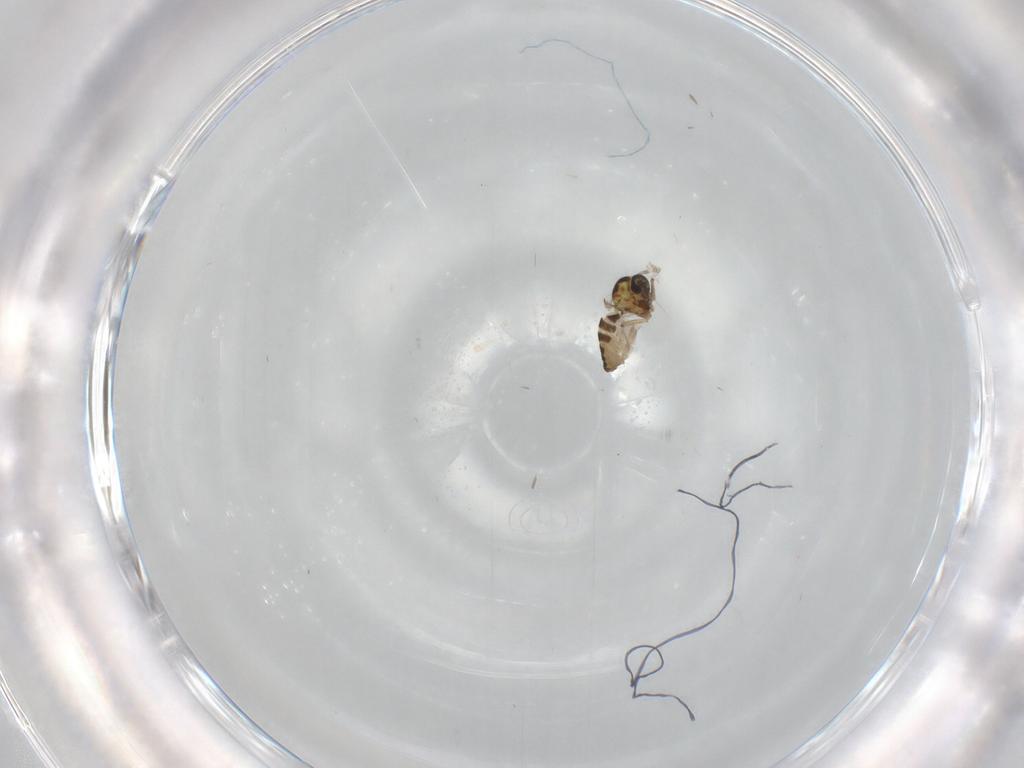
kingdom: Animalia
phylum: Arthropoda
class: Insecta
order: Diptera
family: Ceratopogonidae
